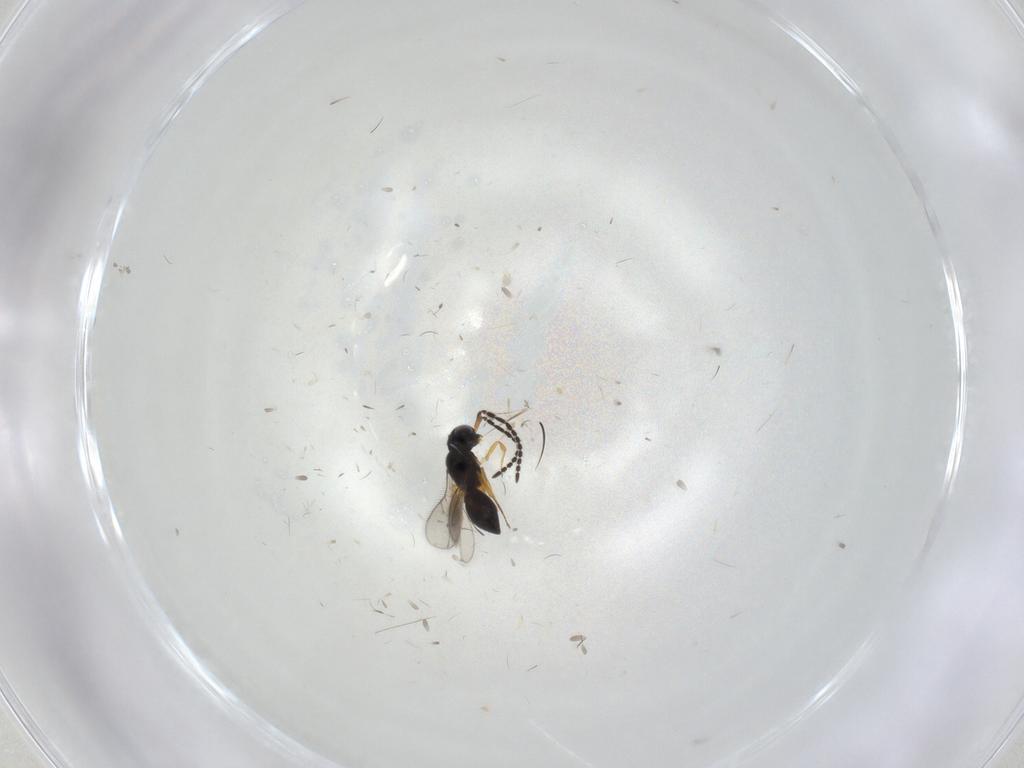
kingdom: Animalia
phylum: Arthropoda
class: Insecta
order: Hymenoptera
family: Scelionidae
